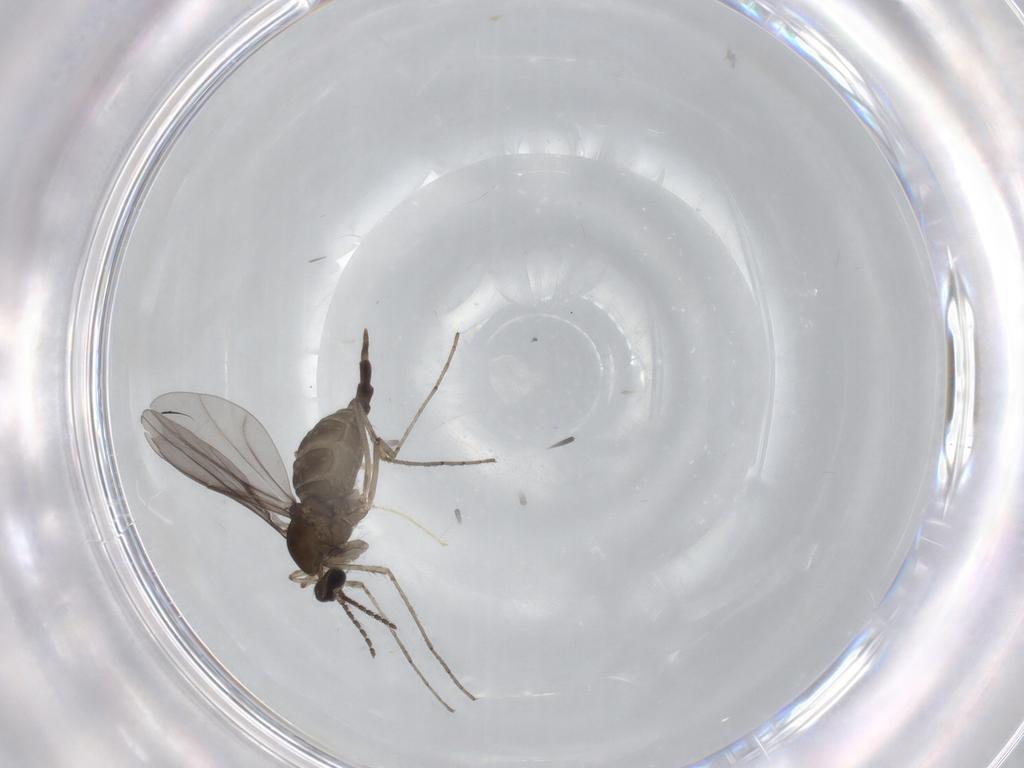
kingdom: Animalia
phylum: Arthropoda
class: Insecta
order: Diptera
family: Cecidomyiidae
